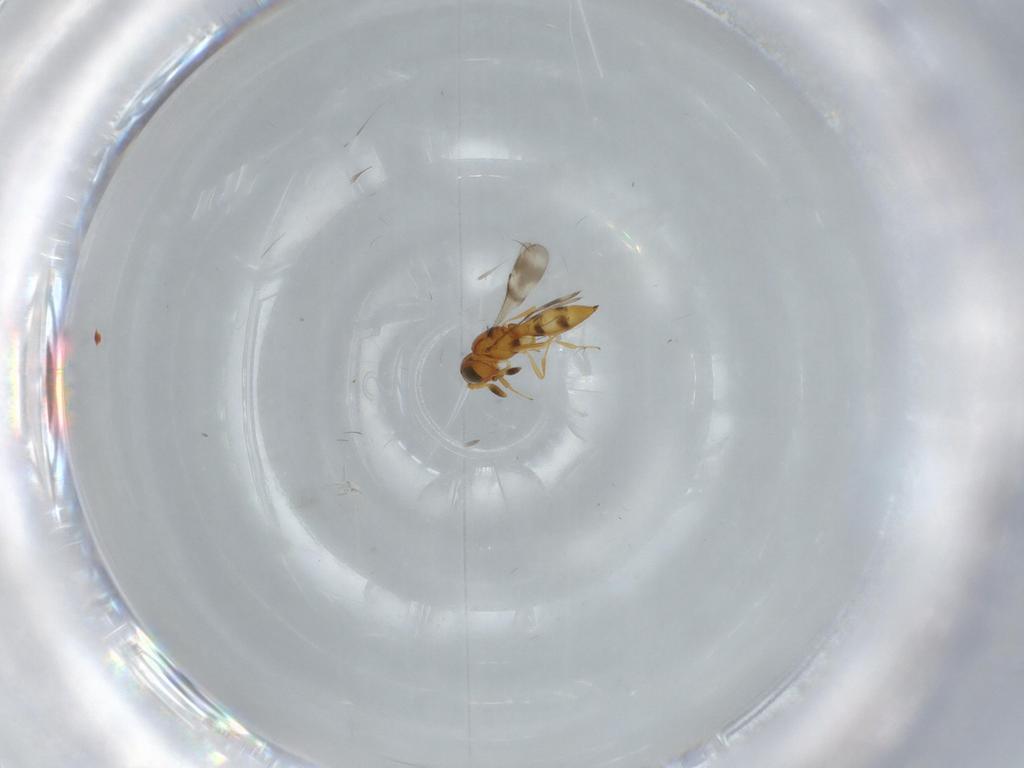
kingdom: Animalia
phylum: Arthropoda
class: Insecta
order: Hymenoptera
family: Scelionidae
